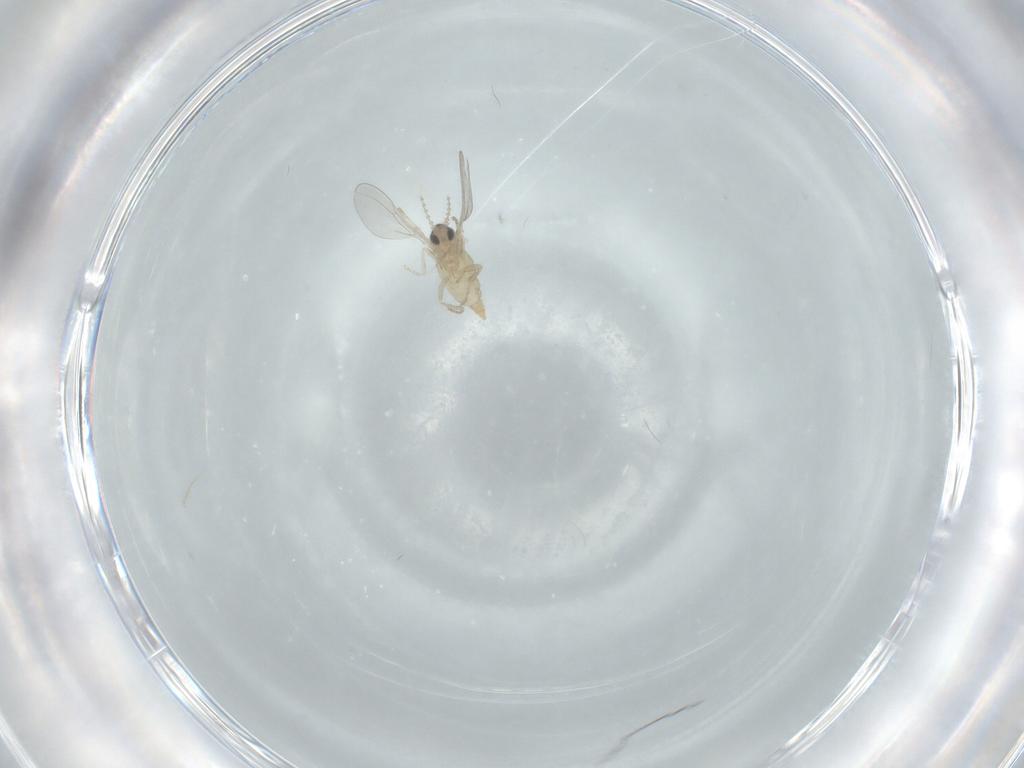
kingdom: Animalia
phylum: Arthropoda
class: Insecta
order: Diptera
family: Cecidomyiidae
